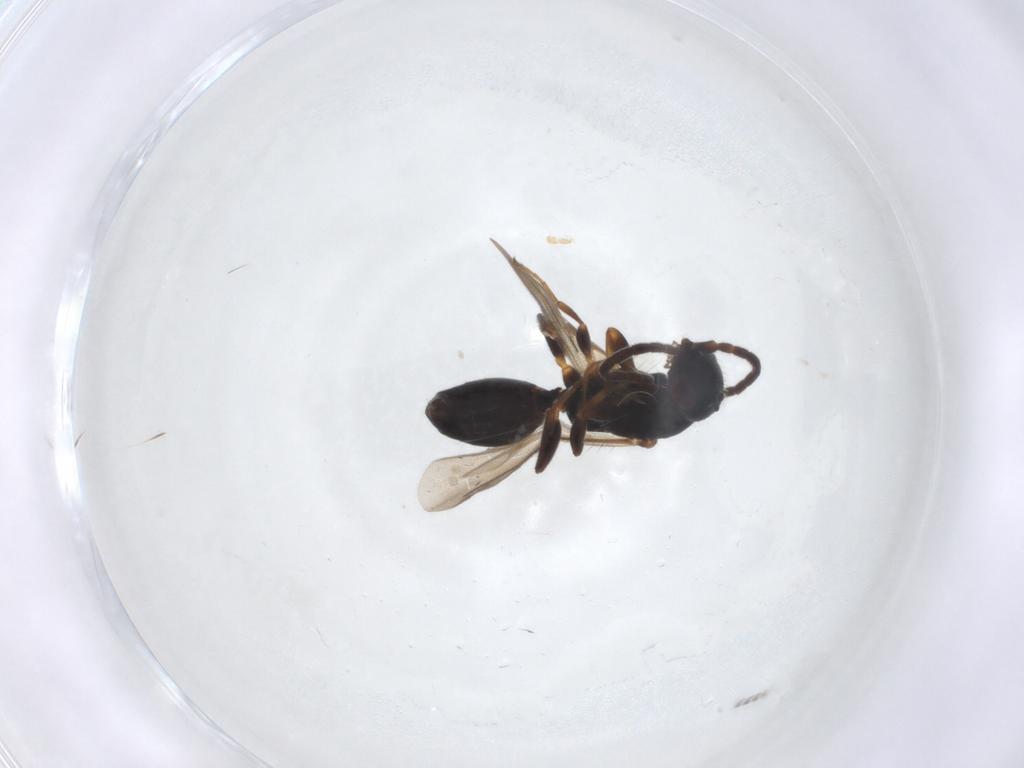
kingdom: Animalia
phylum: Arthropoda
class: Insecta
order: Hymenoptera
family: Bethylidae
